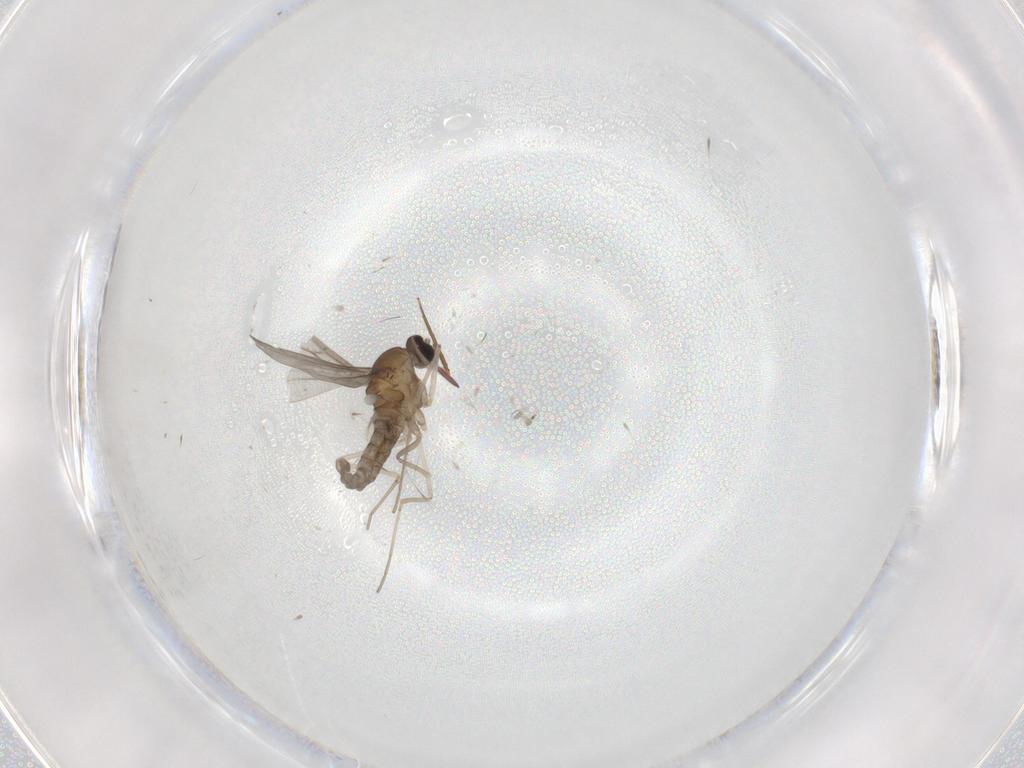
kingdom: Animalia
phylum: Arthropoda
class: Insecta
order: Diptera
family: Cecidomyiidae
